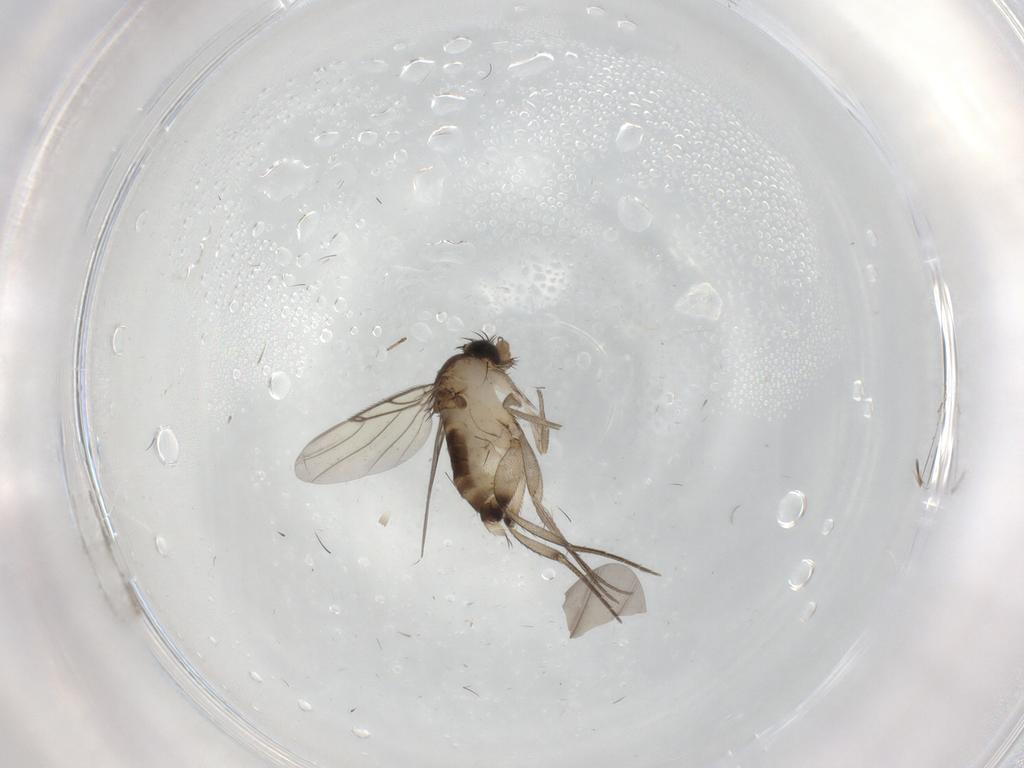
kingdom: Animalia
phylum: Arthropoda
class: Insecta
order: Diptera
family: Phoridae
